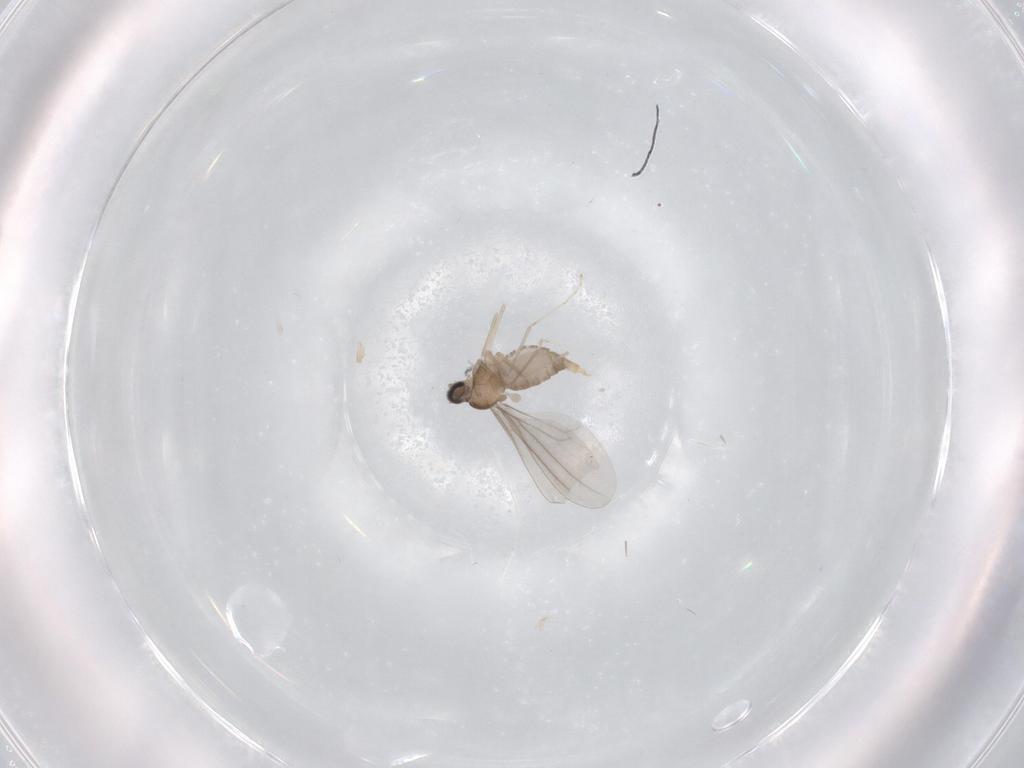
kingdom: Animalia
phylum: Arthropoda
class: Insecta
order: Diptera
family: Cecidomyiidae
